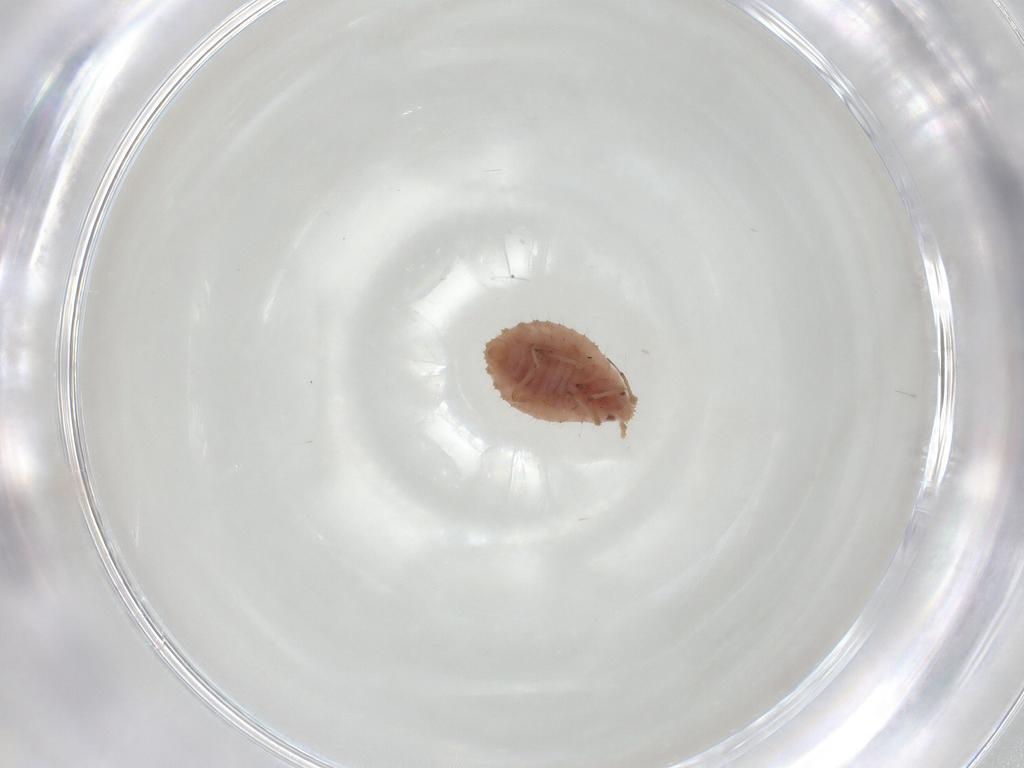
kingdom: Animalia
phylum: Arthropoda
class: Insecta
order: Hemiptera
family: Aphididae
